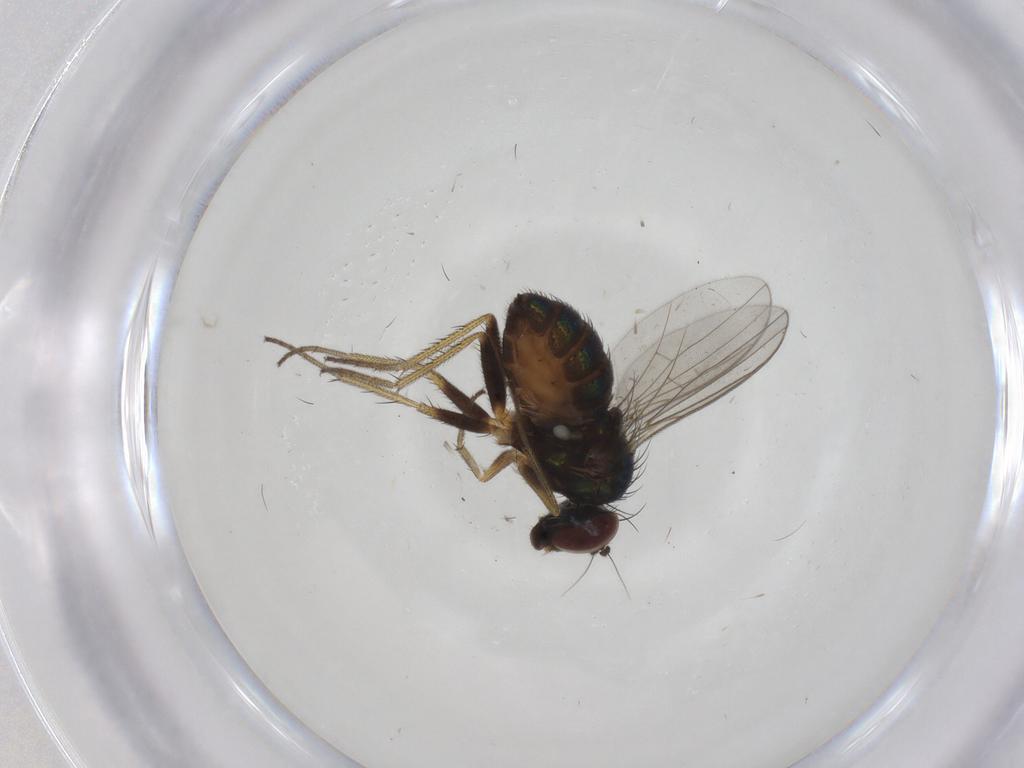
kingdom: Animalia
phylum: Arthropoda
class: Insecta
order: Diptera
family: Dolichopodidae
